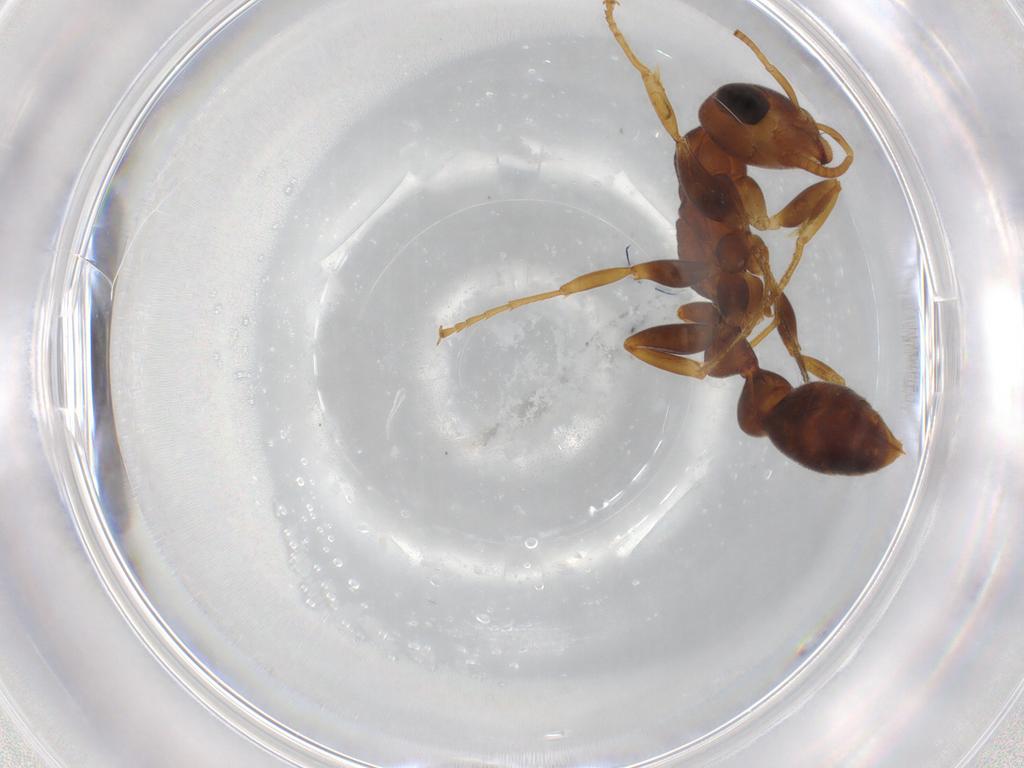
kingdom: Animalia
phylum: Arthropoda
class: Insecta
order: Hymenoptera
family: Formicidae
